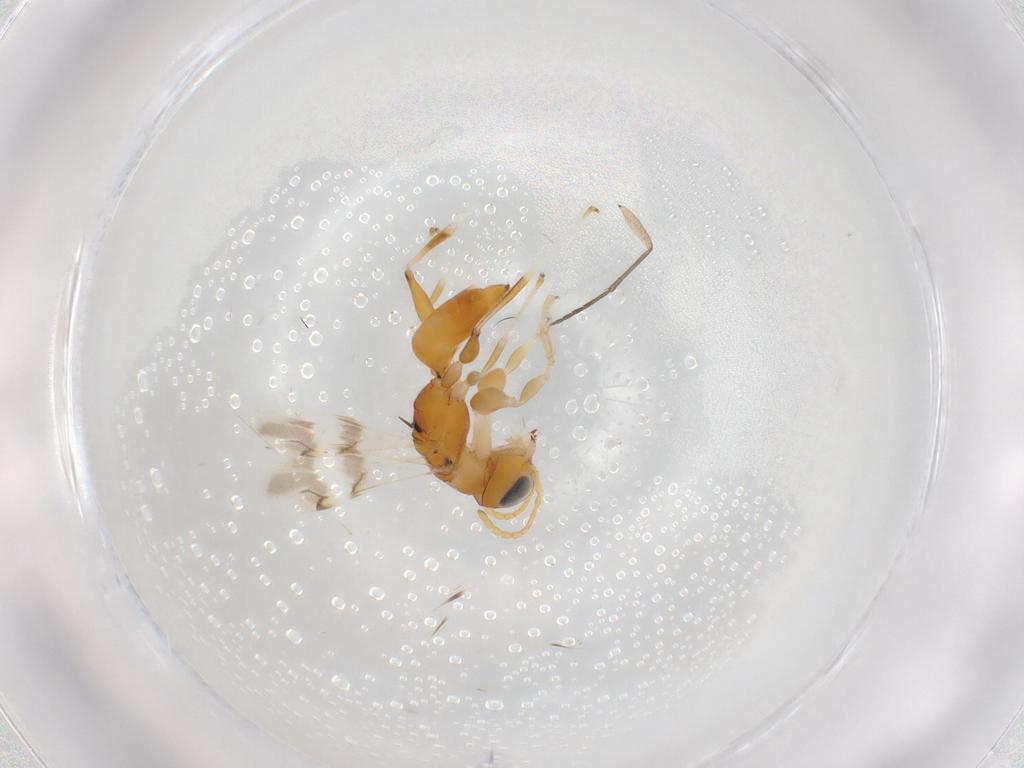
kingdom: Animalia
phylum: Arthropoda
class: Insecta
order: Hymenoptera
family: Dryinidae
